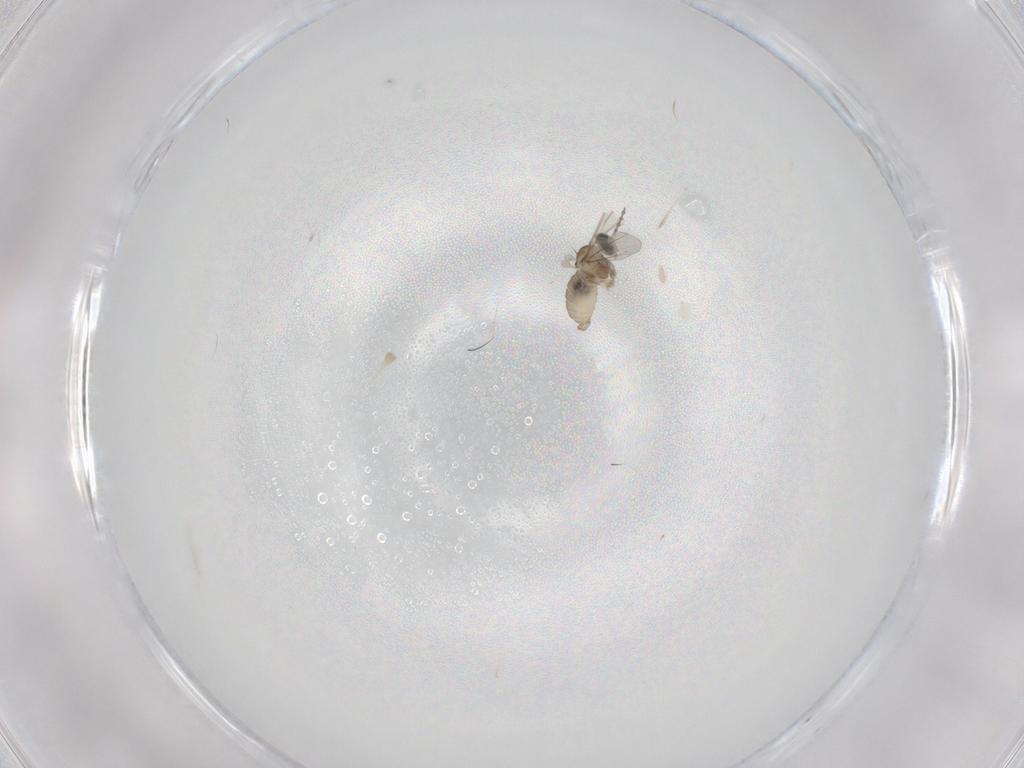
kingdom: Animalia
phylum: Arthropoda
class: Insecta
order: Diptera
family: Cecidomyiidae
